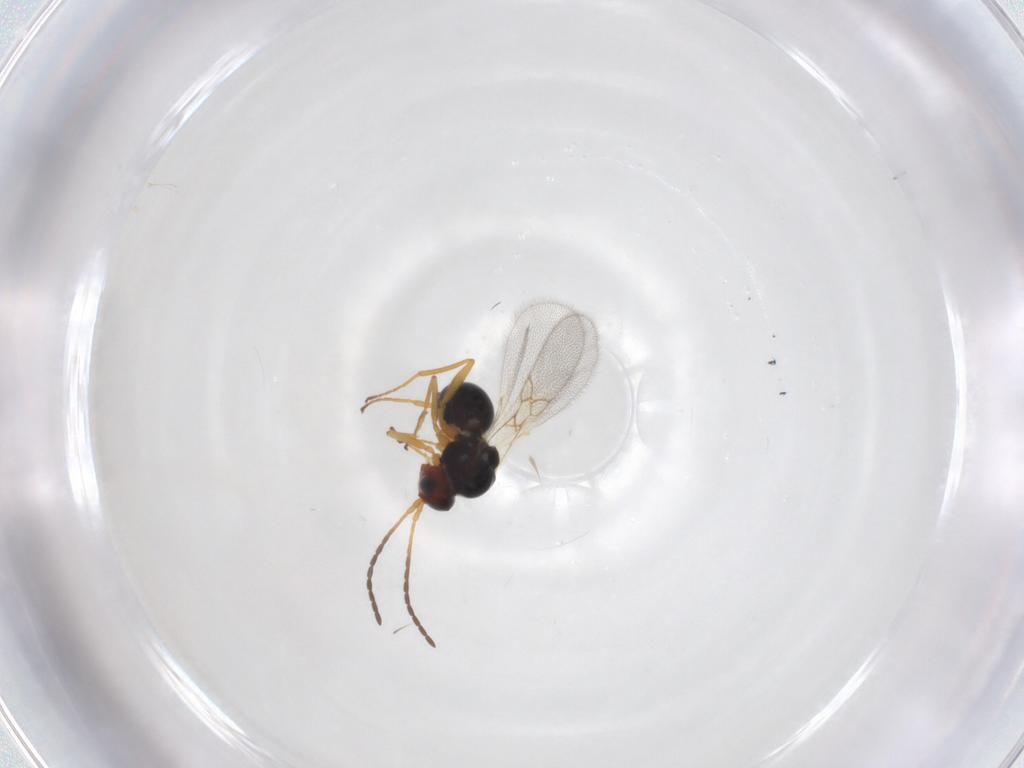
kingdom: Animalia
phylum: Arthropoda
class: Insecta
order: Hymenoptera
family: Figitidae
